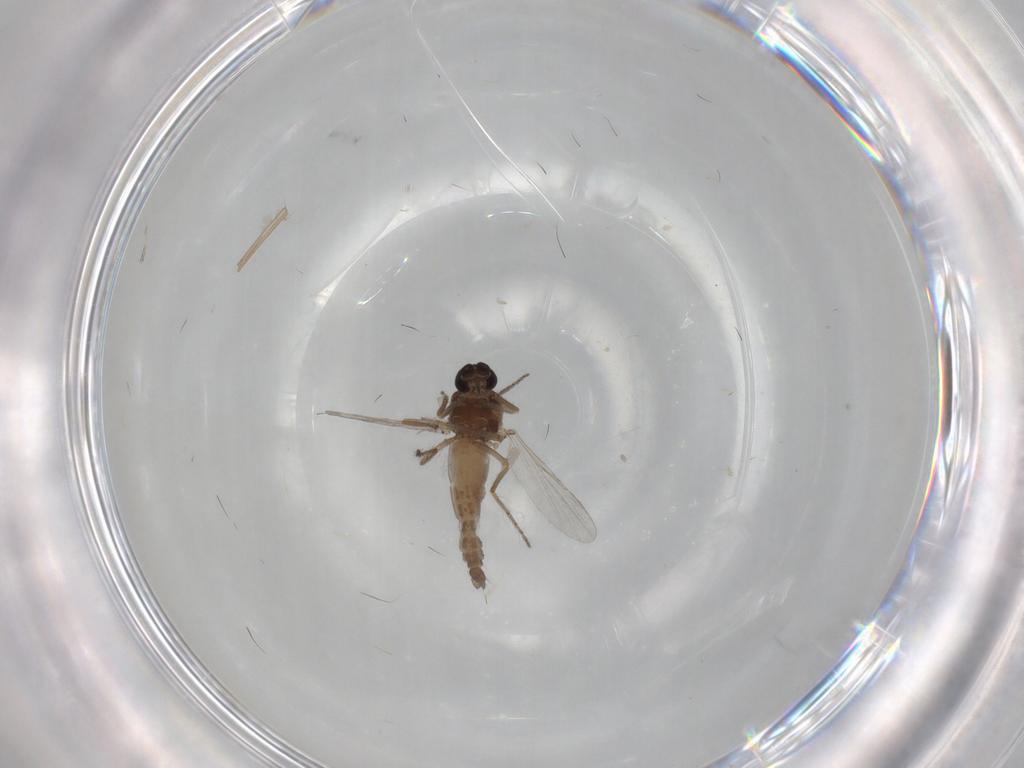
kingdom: Animalia
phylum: Arthropoda
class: Insecta
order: Diptera
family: Ceratopogonidae
